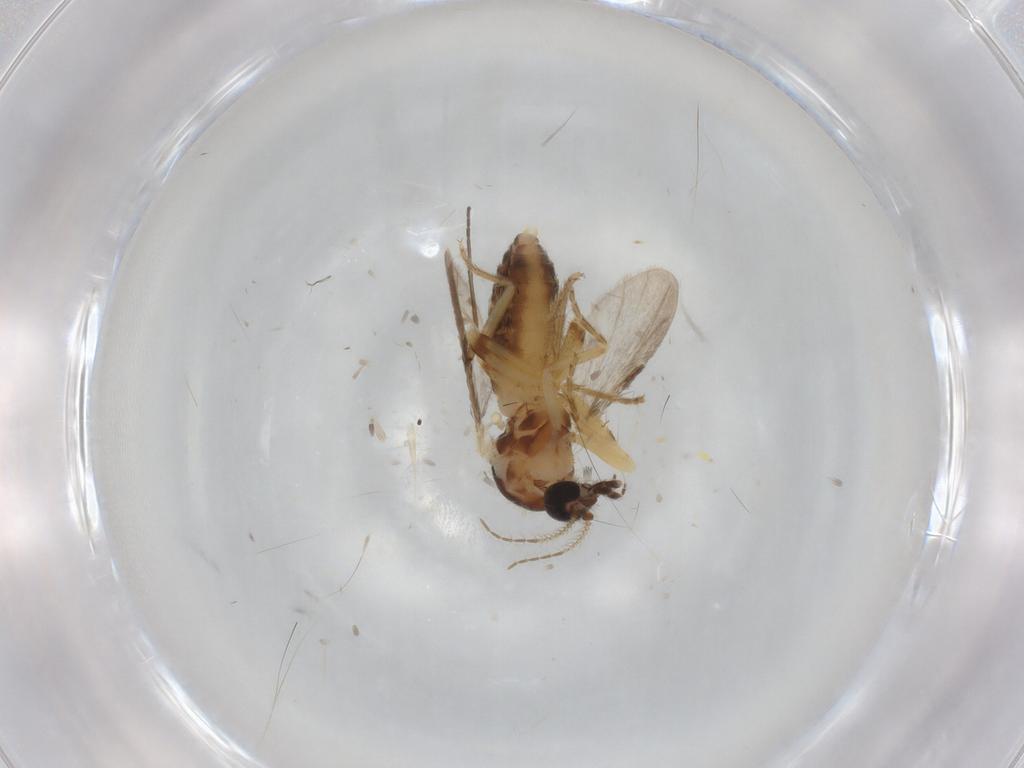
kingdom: Animalia
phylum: Arthropoda
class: Insecta
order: Diptera
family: Ceratopogonidae
